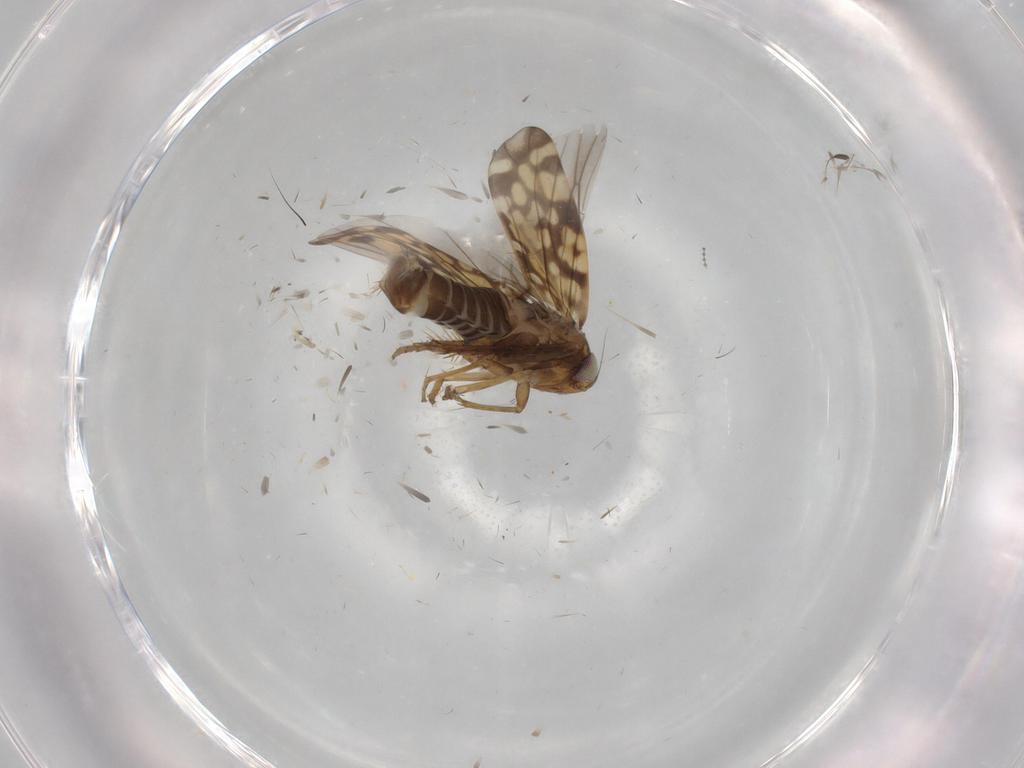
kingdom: Animalia
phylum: Arthropoda
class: Insecta
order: Hemiptera
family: Cicadellidae
